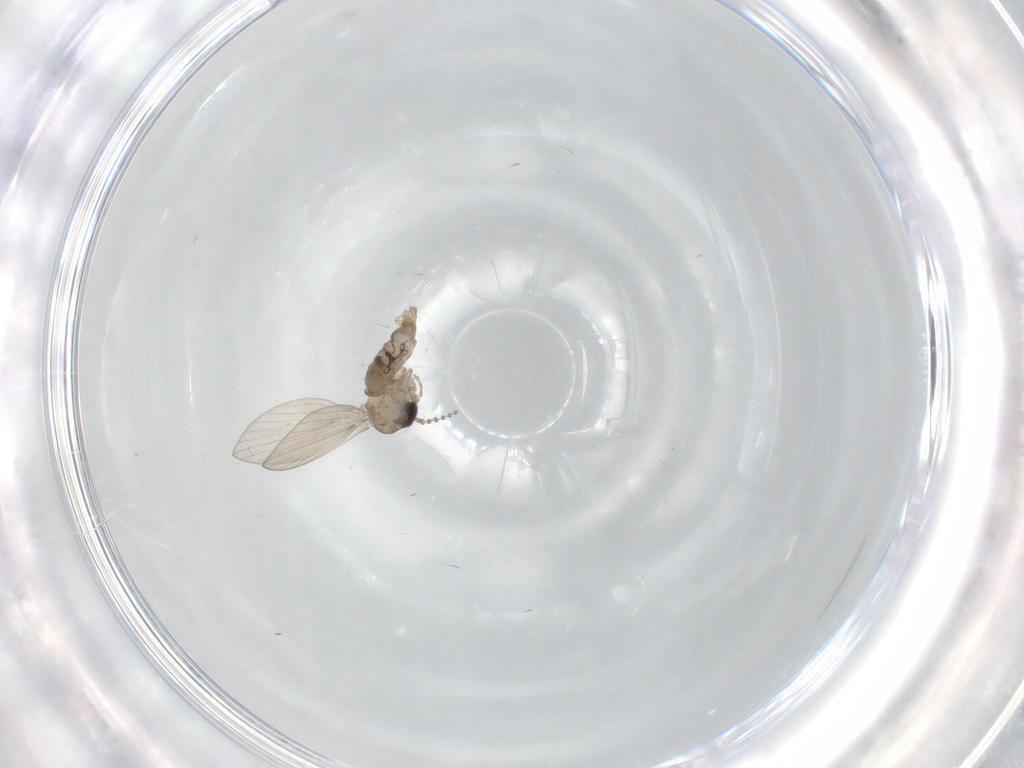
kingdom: Animalia
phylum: Arthropoda
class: Insecta
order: Diptera
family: Psychodidae
